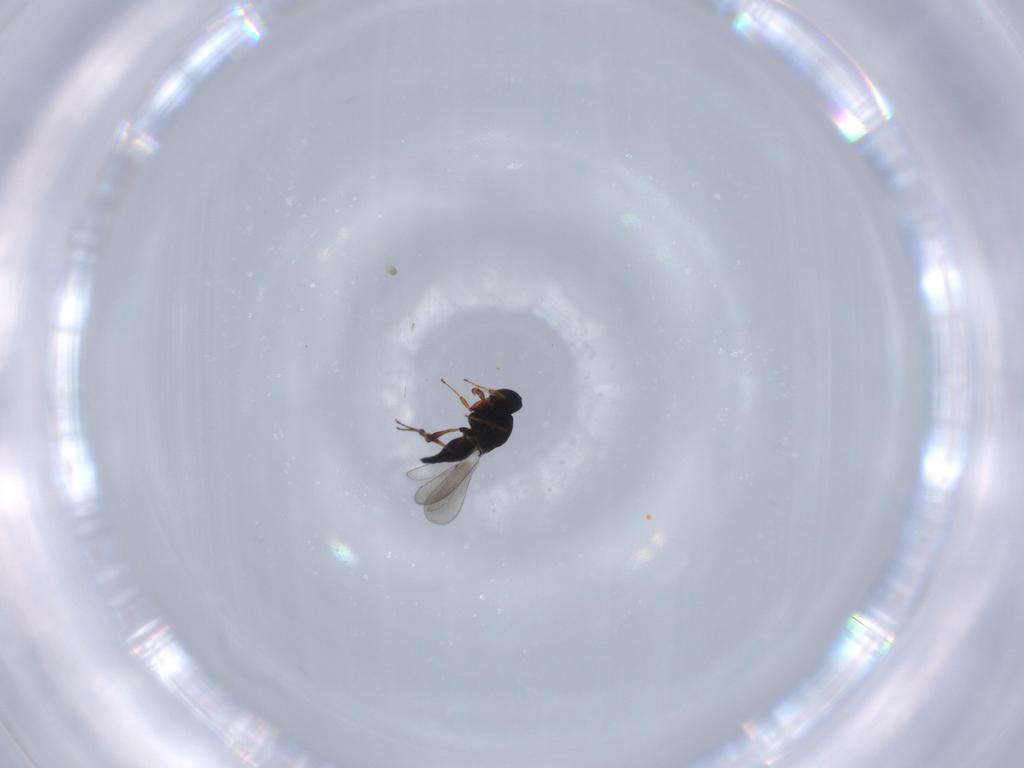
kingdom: Animalia
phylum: Arthropoda
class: Insecta
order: Hymenoptera
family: Platygastridae
